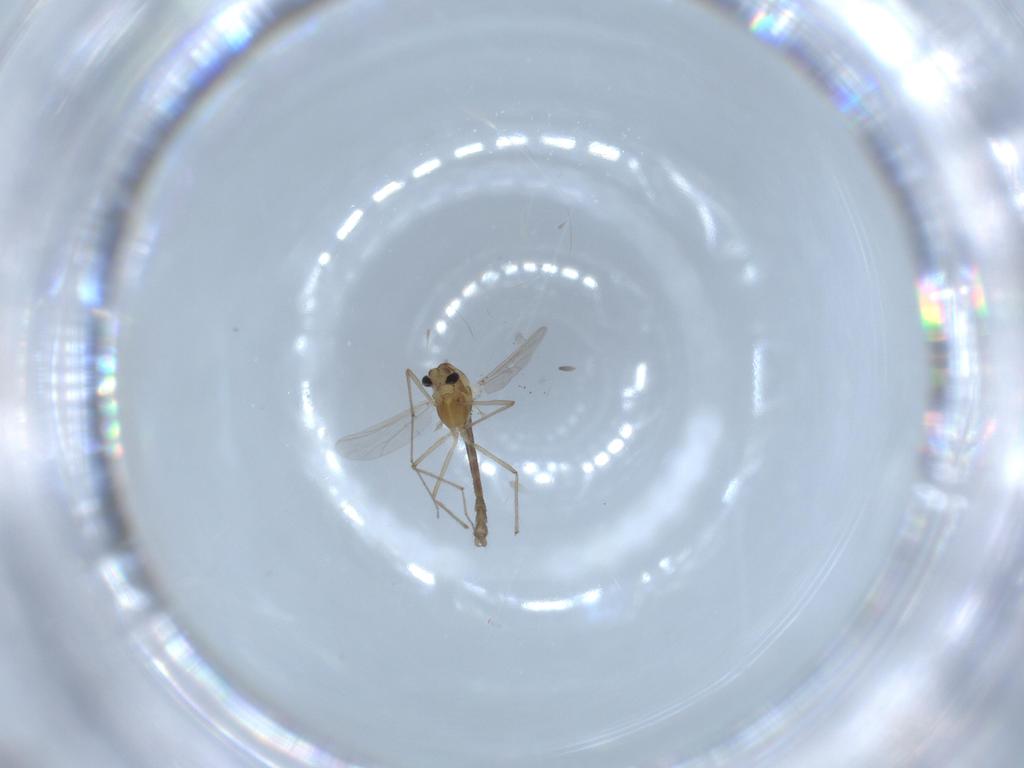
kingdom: Animalia
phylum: Arthropoda
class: Insecta
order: Diptera
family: Chironomidae
